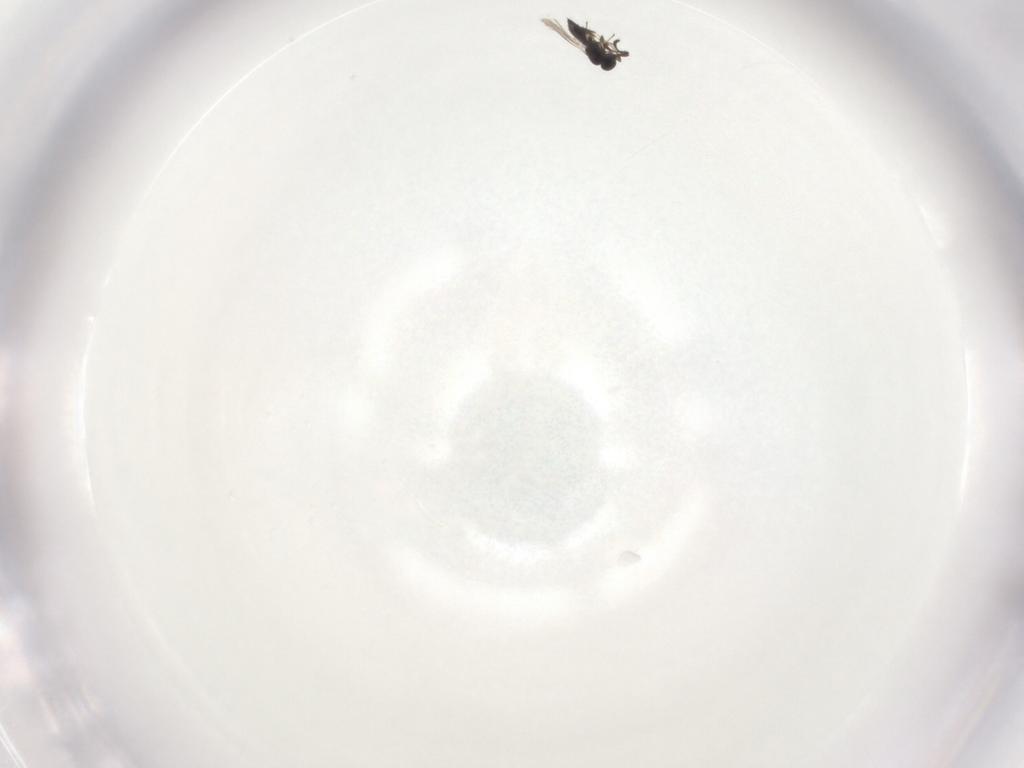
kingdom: Animalia
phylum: Arthropoda
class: Insecta
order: Hymenoptera
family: Scelionidae
